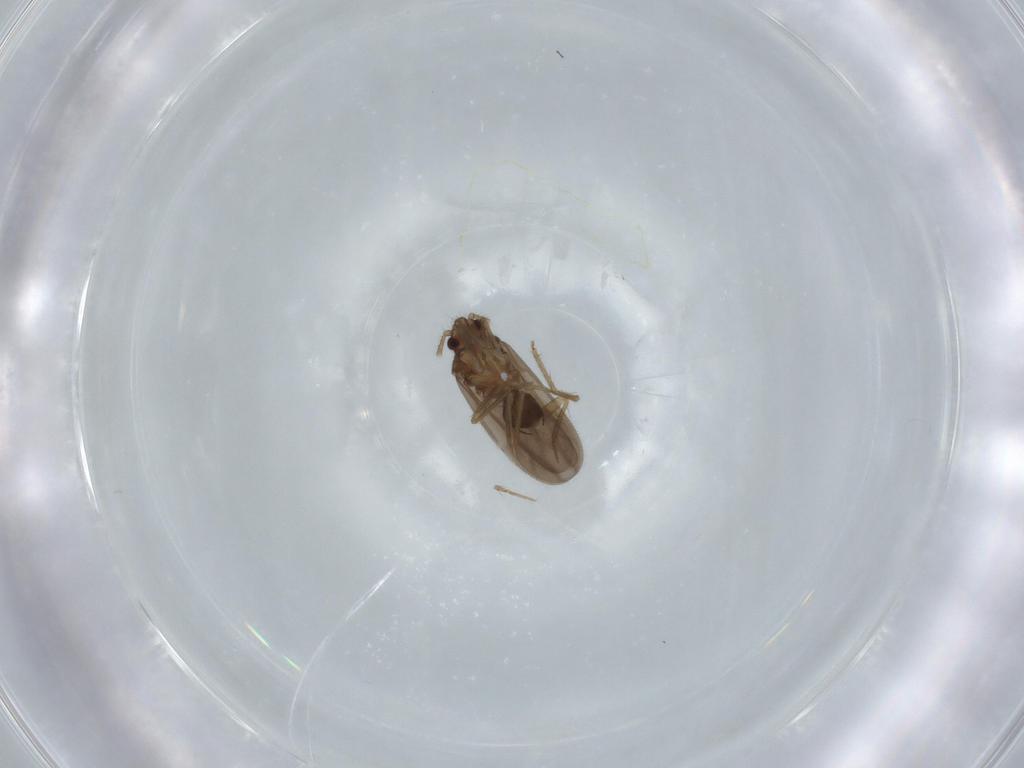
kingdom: Animalia
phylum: Arthropoda
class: Insecta
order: Hemiptera
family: Ceratocombidae
